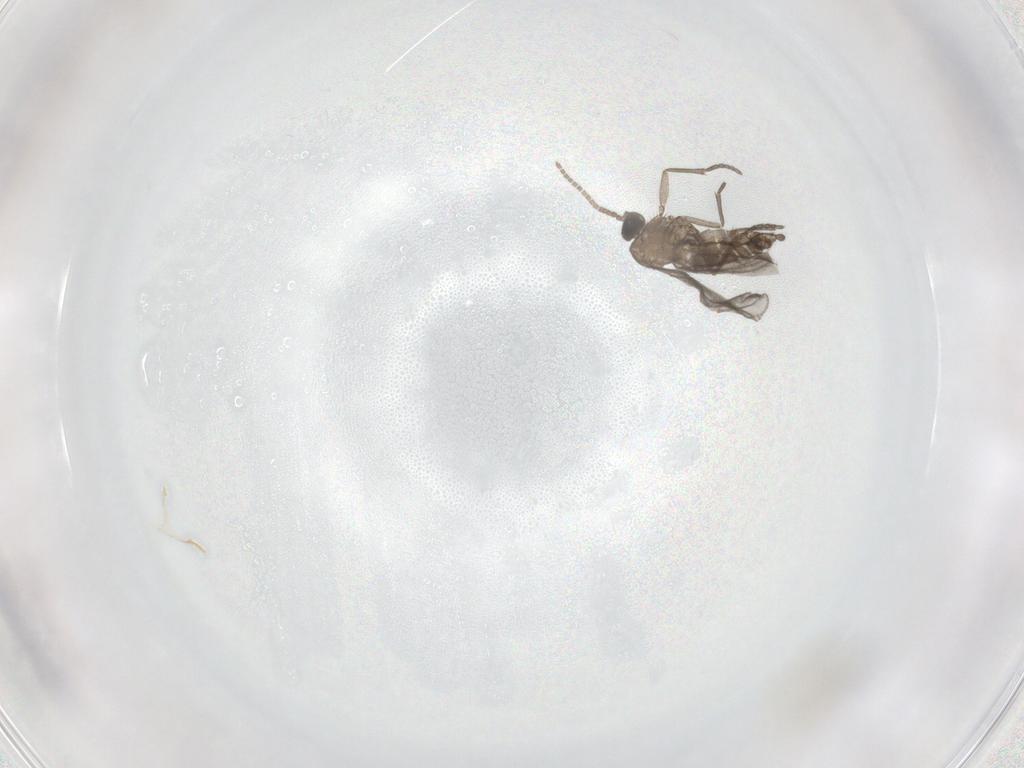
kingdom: Animalia
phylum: Arthropoda
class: Insecta
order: Diptera
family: Sciaridae
